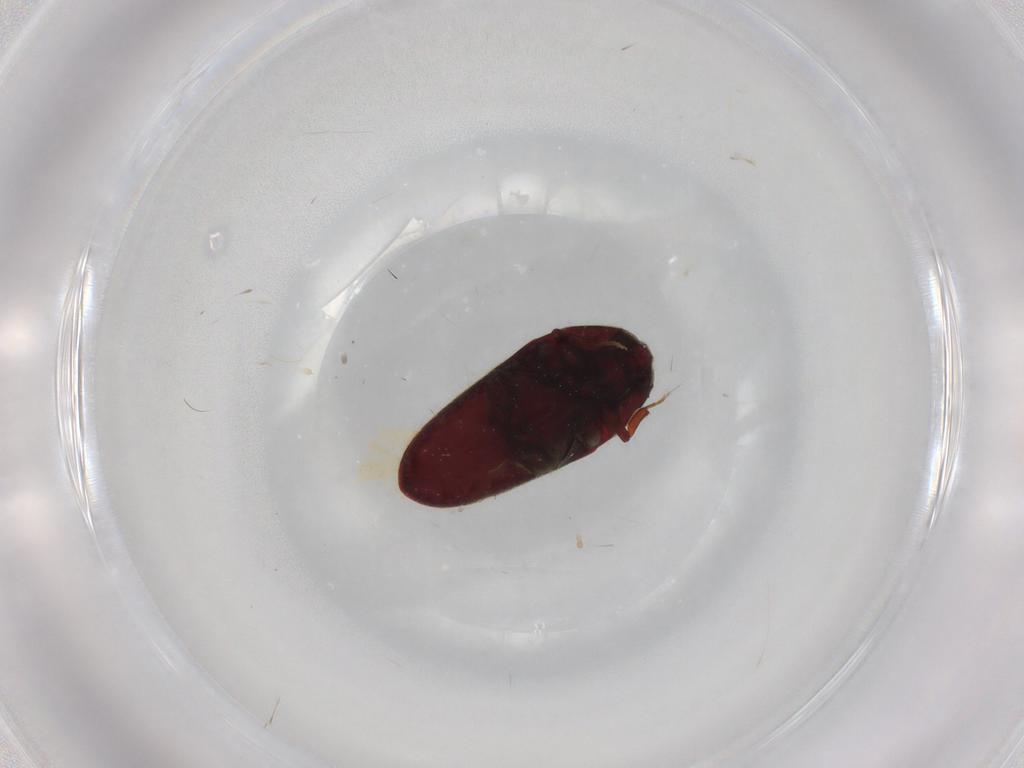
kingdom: Animalia
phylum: Arthropoda
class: Insecta
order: Coleoptera
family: Throscidae
